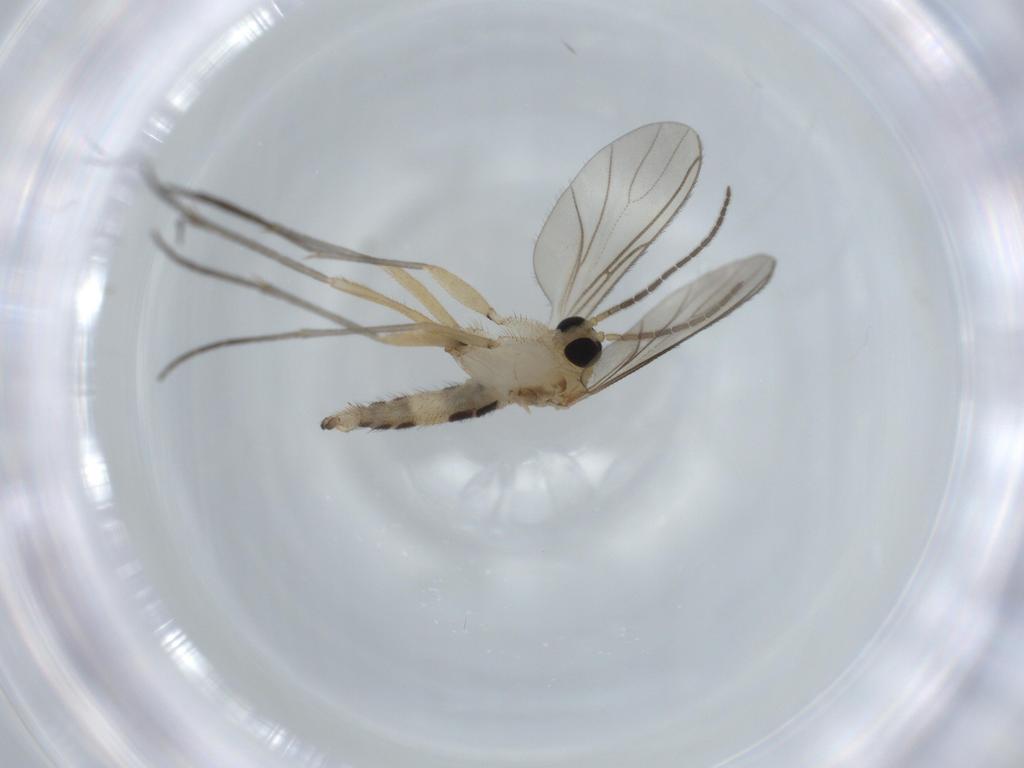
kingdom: Animalia
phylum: Arthropoda
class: Insecta
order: Diptera
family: Sciaridae
